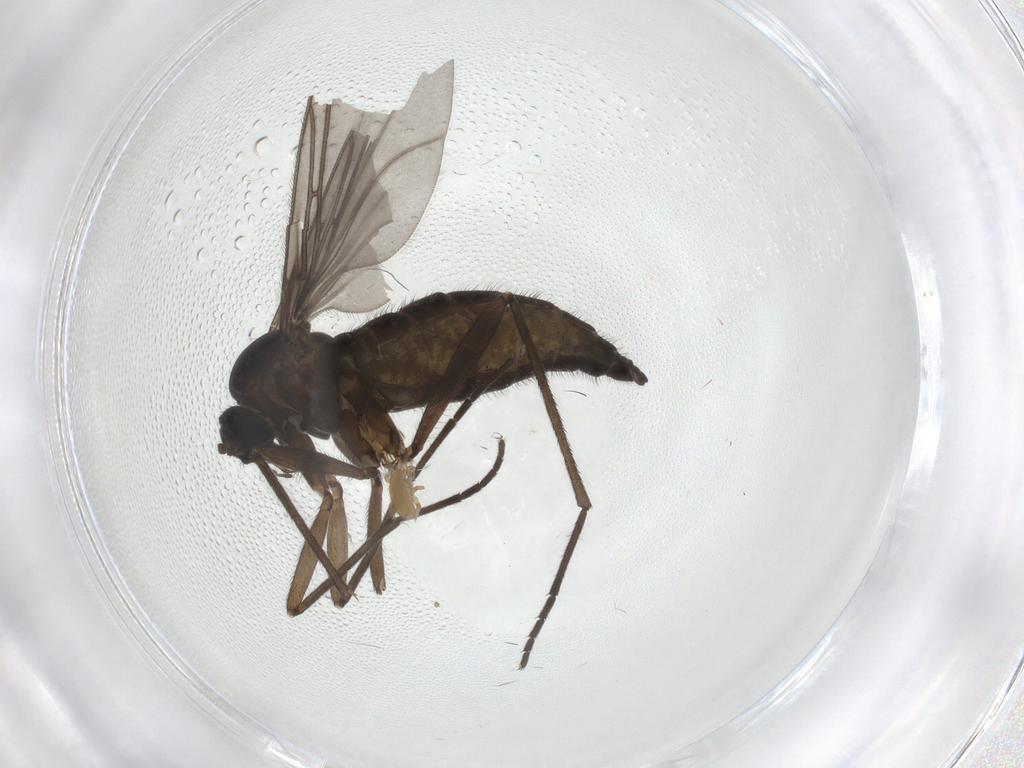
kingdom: Animalia
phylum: Arthropoda
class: Insecta
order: Diptera
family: Sciaridae
